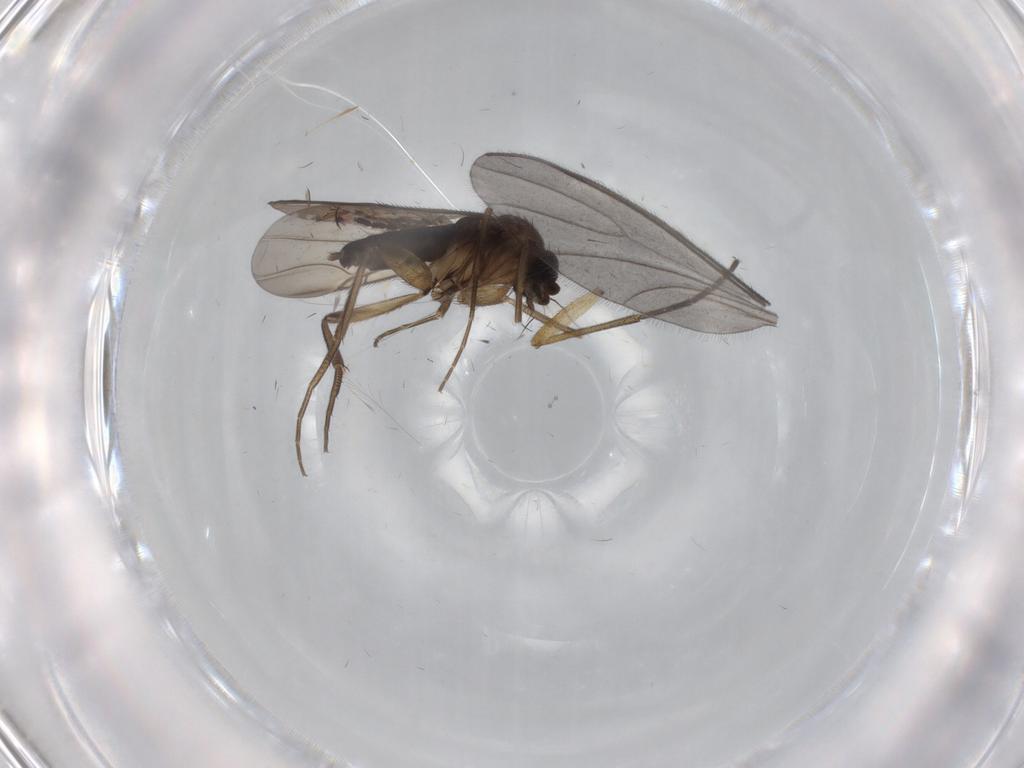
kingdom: Animalia
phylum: Arthropoda
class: Insecta
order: Diptera
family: Phoridae
